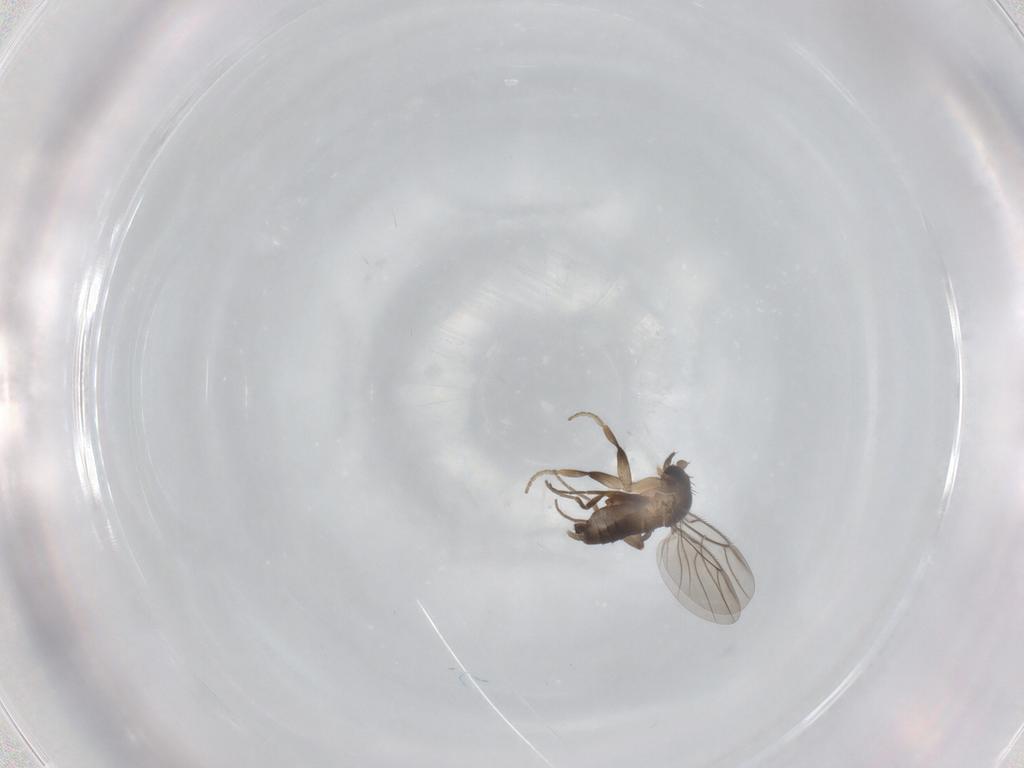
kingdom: Animalia
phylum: Arthropoda
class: Insecta
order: Diptera
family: Phoridae
